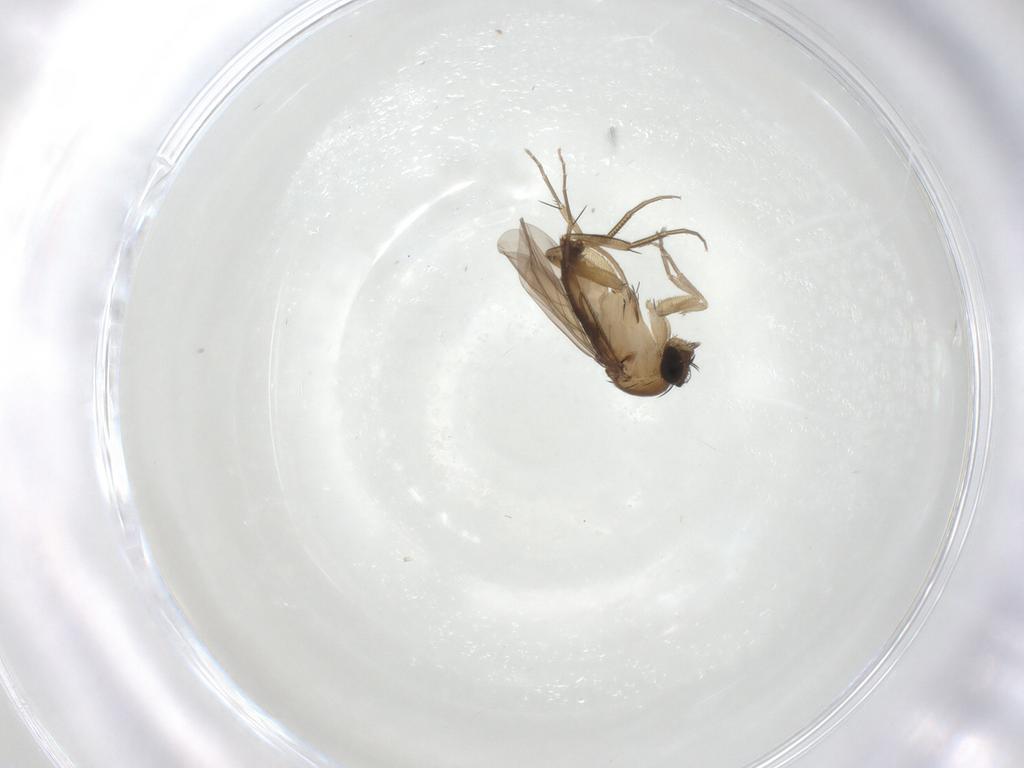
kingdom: Animalia
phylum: Arthropoda
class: Insecta
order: Diptera
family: Phoridae
